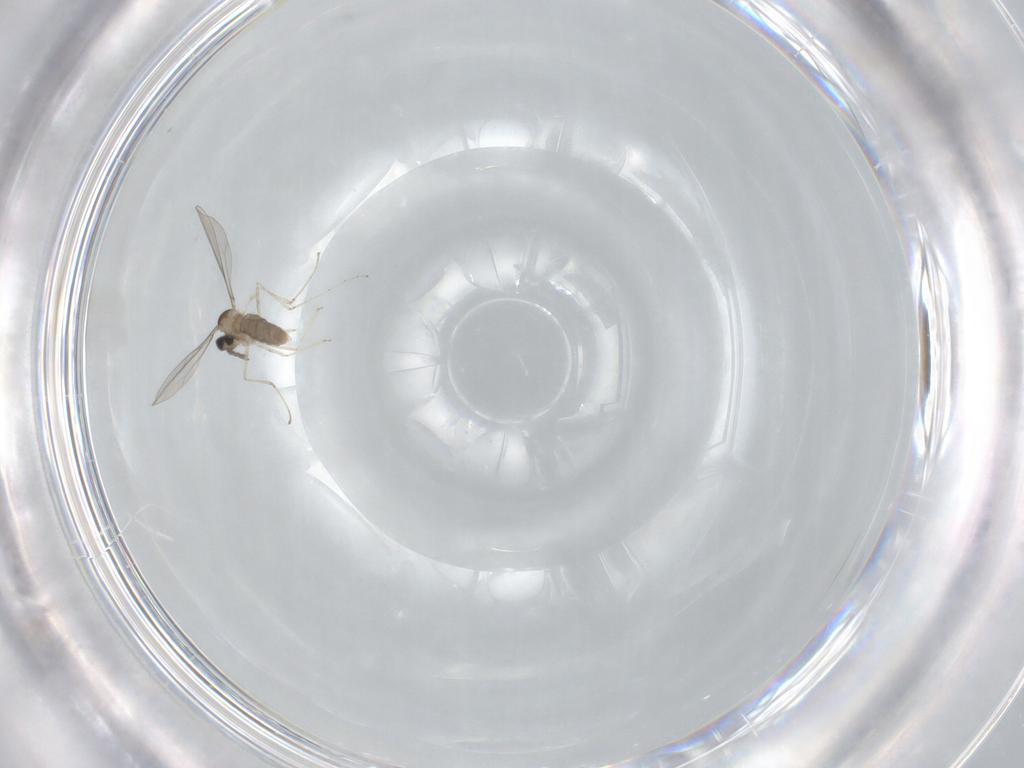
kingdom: Animalia
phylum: Arthropoda
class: Insecta
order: Diptera
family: Cecidomyiidae
